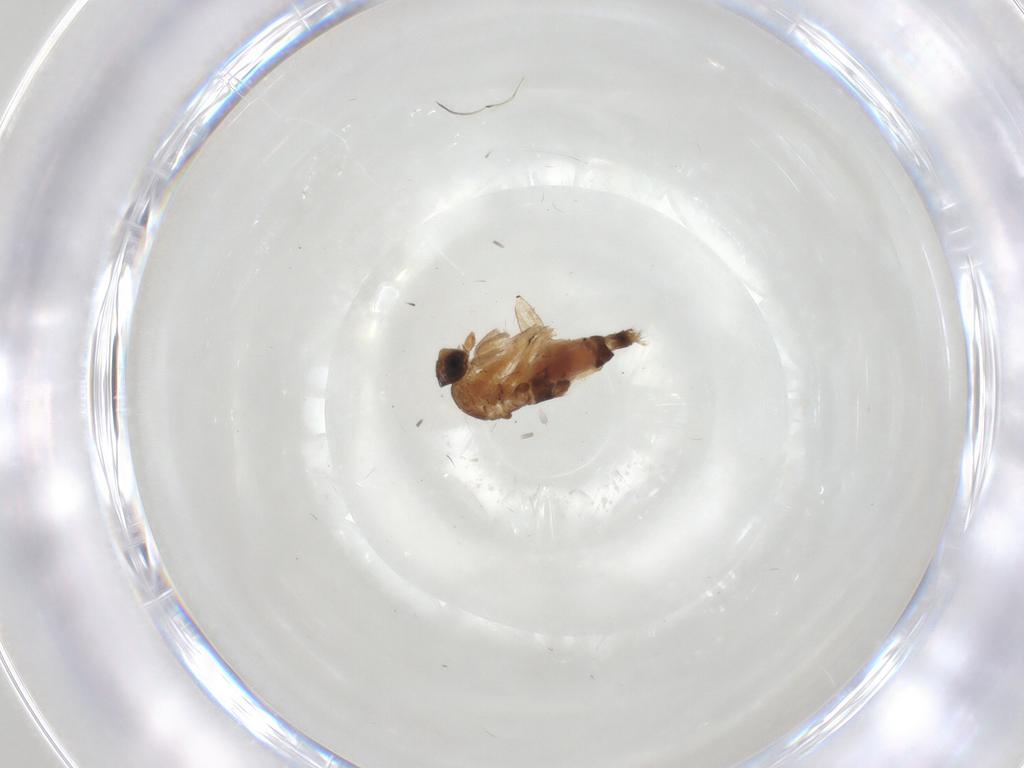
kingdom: Animalia
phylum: Arthropoda
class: Insecta
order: Diptera
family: Phoridae
